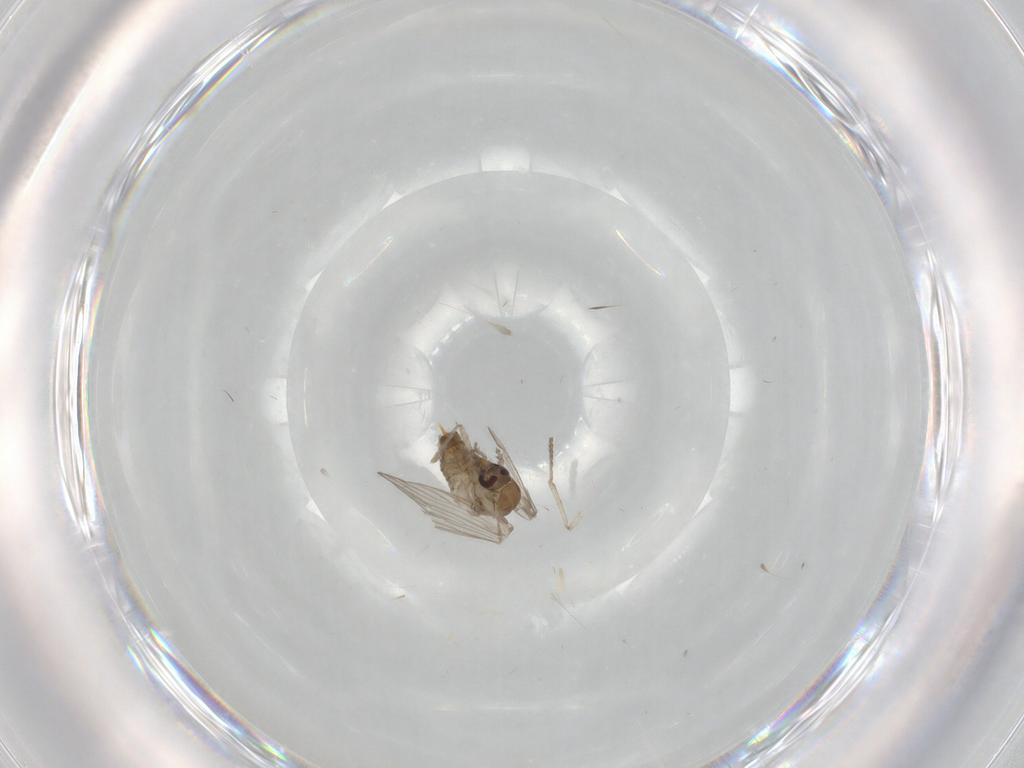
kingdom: Animalia
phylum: Arthropoda
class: Insecta
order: Diptera
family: Psychodidae
